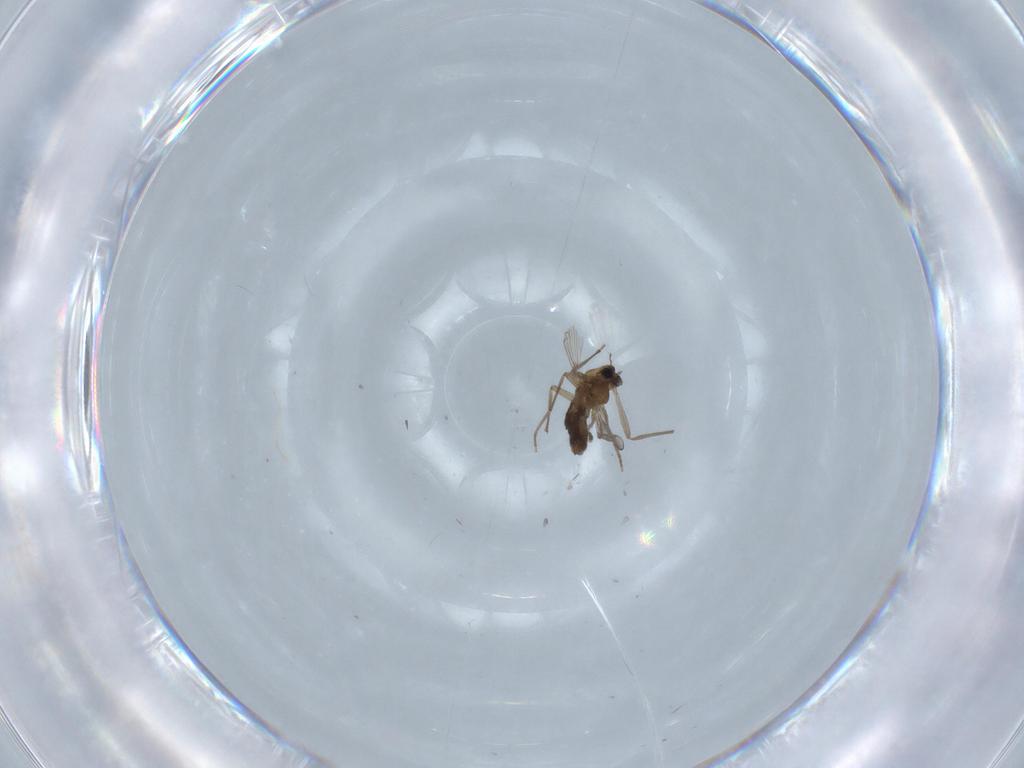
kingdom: Animalia
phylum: Arthropoda
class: Insecta
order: Diptera
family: Chironomidae
